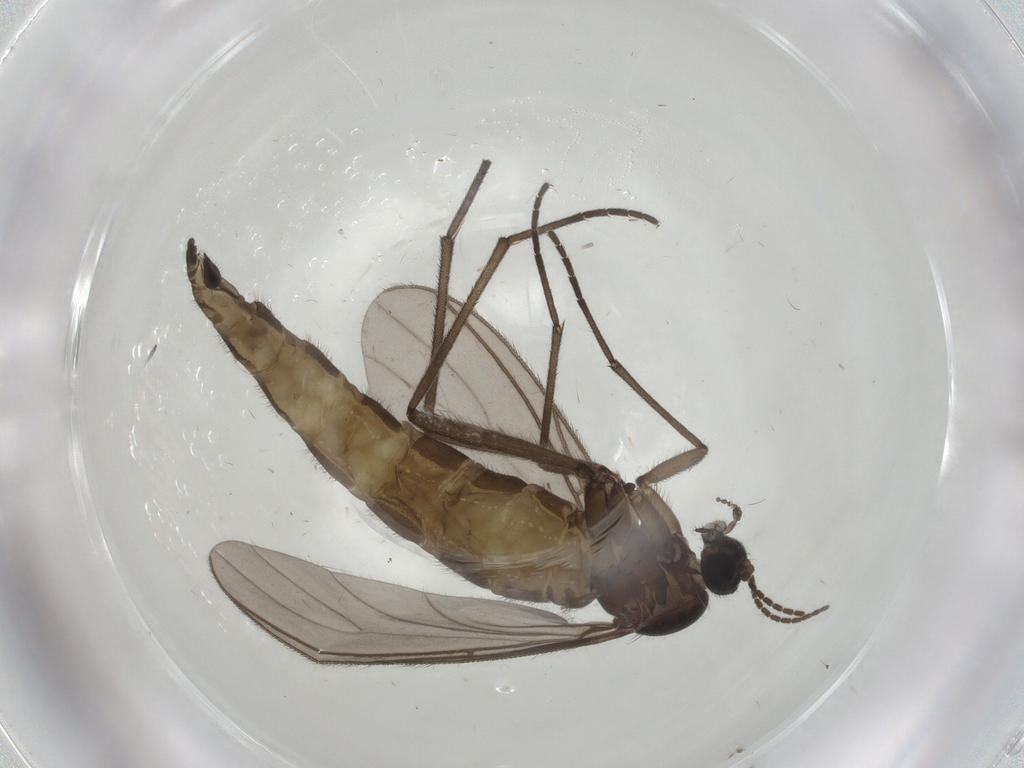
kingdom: Animalia
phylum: Arthropoda
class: Insecta
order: Diptera
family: Sciaridae
